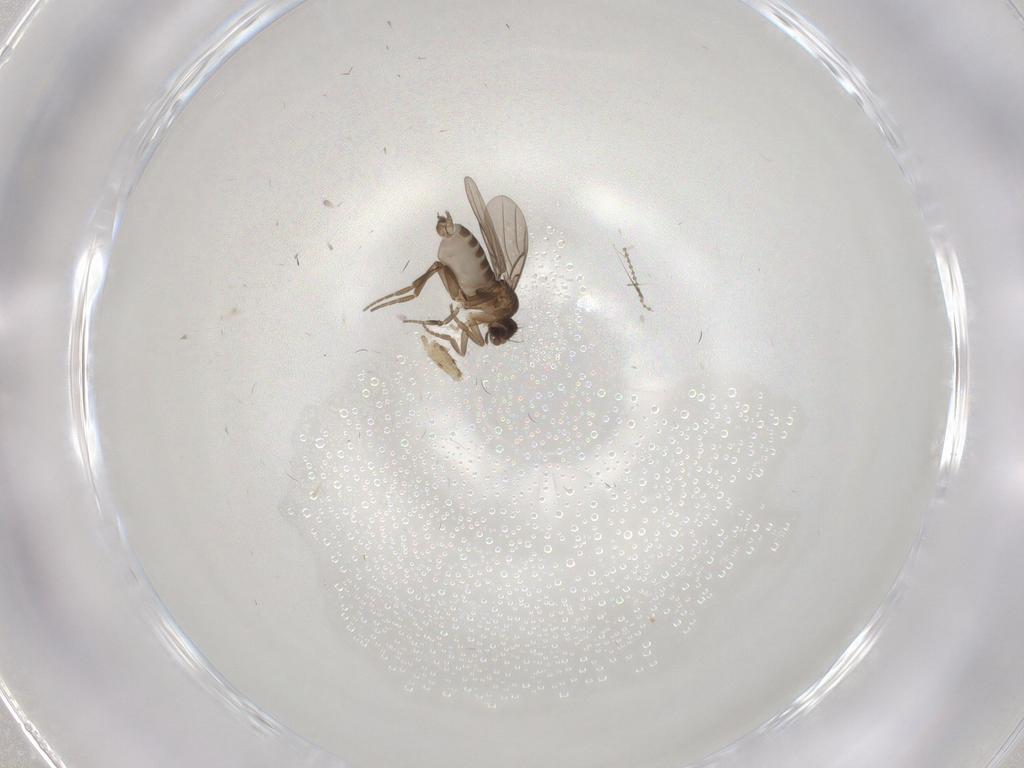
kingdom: Animalia
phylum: Arthropoda
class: Insecta
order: Diptera
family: Phoridae
